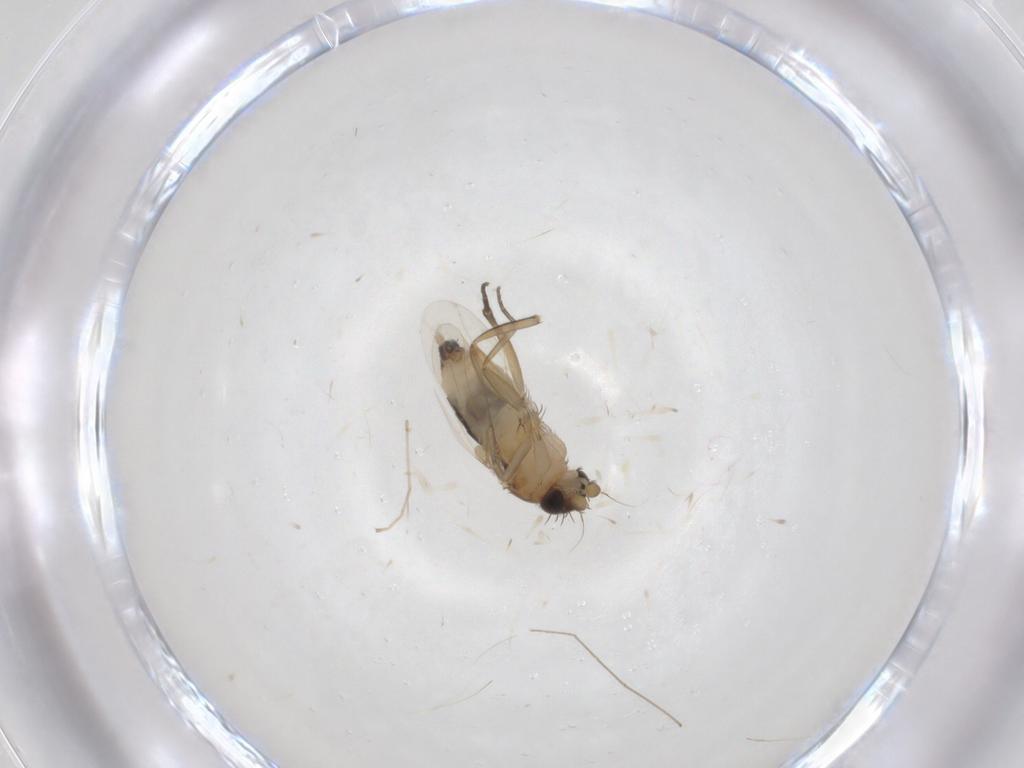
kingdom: Animalia
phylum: Arthropoda
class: Insecta
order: Diptera
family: Phoridae
